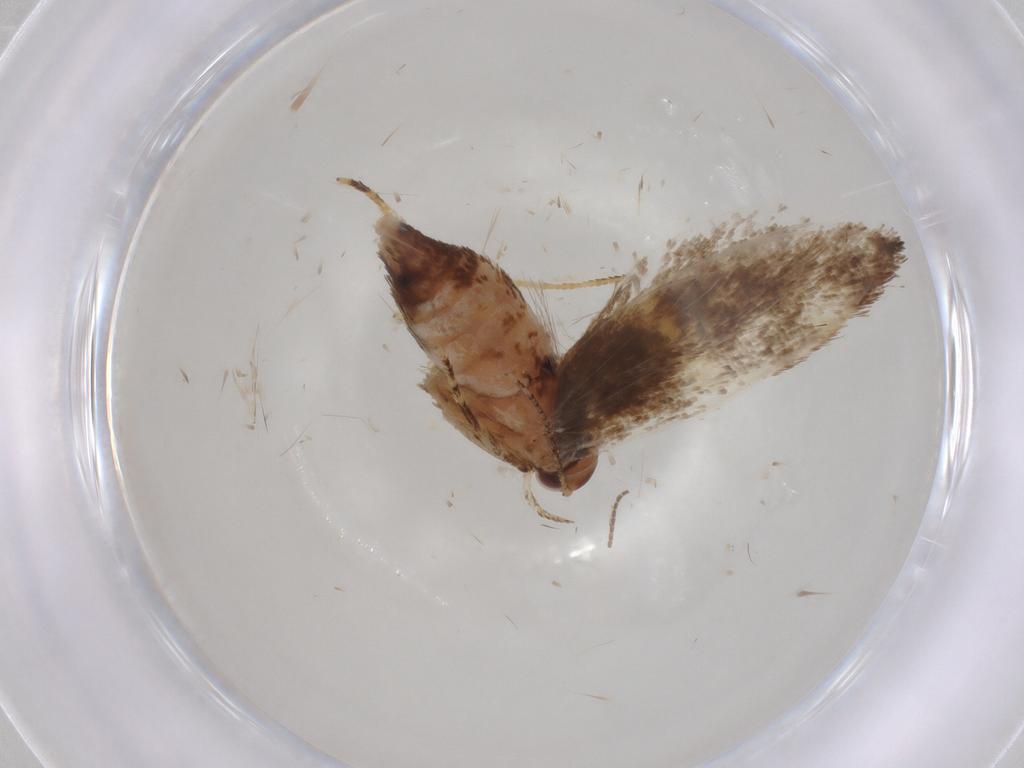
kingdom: Animalia
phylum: Arthropoda
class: Insecta
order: Lepidoptera
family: Oecophoridae
